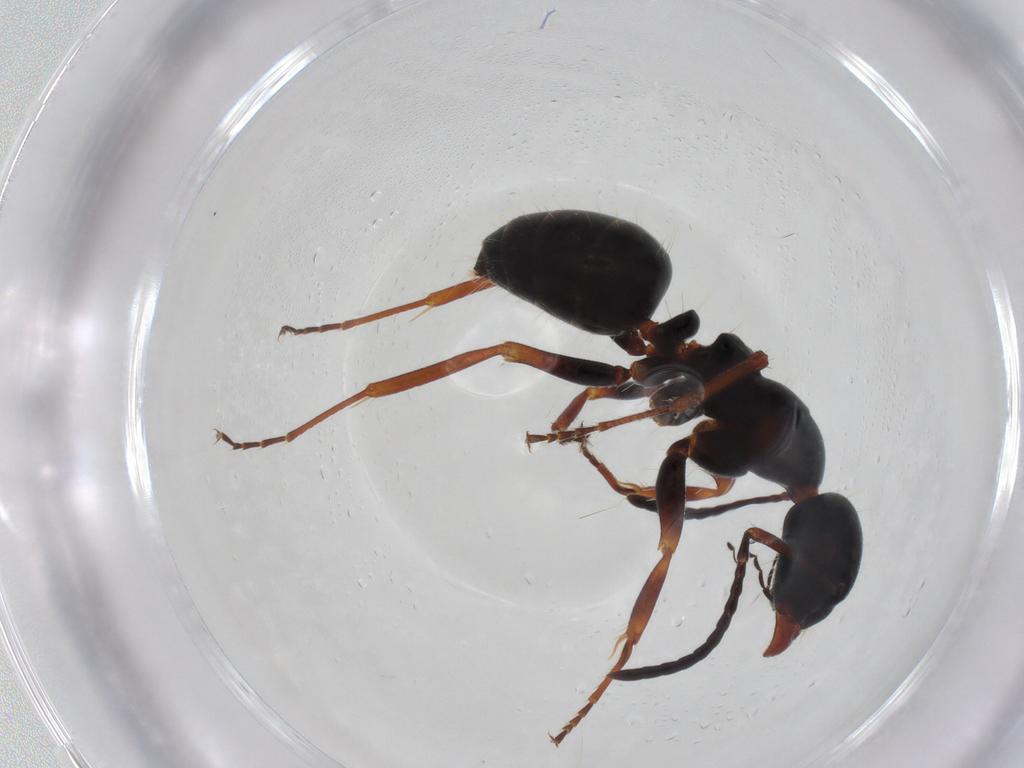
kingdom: Animalia
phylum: Arthropoda
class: Insecta
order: Hymenoptera
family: Formicidae
